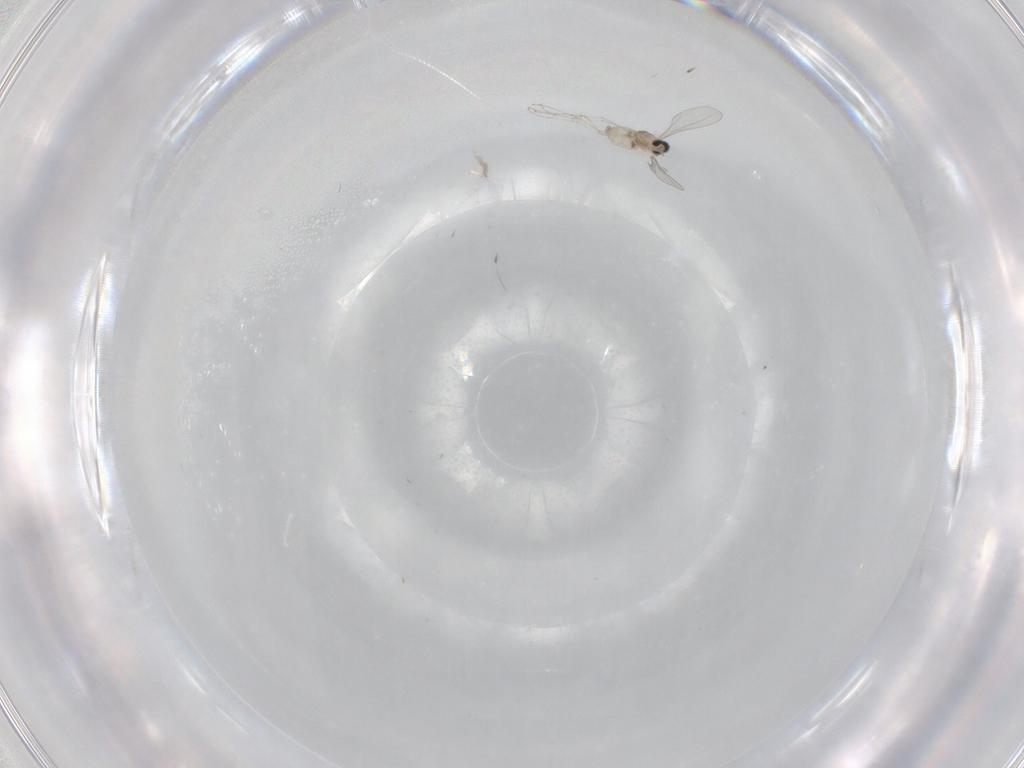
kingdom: Animalia
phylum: Arthropoda
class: Insecta
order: Diptera
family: Cecidomyiidae
